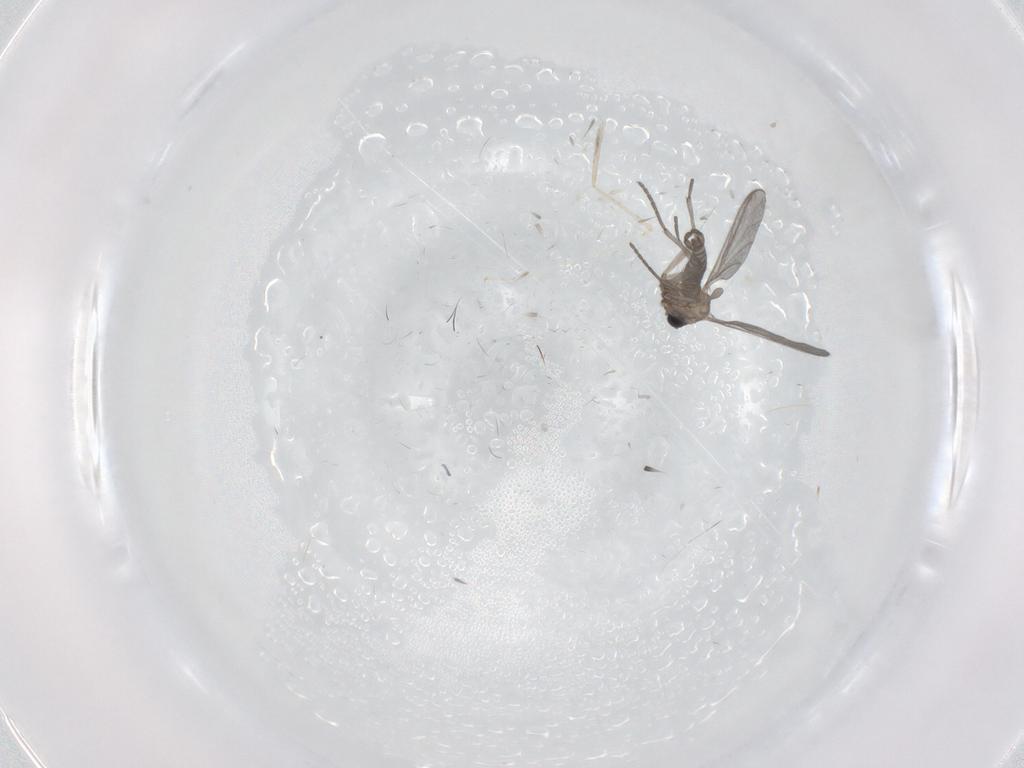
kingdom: Animalia
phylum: Arthropoda
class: Insecta
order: Diptera
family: Sciaridae
